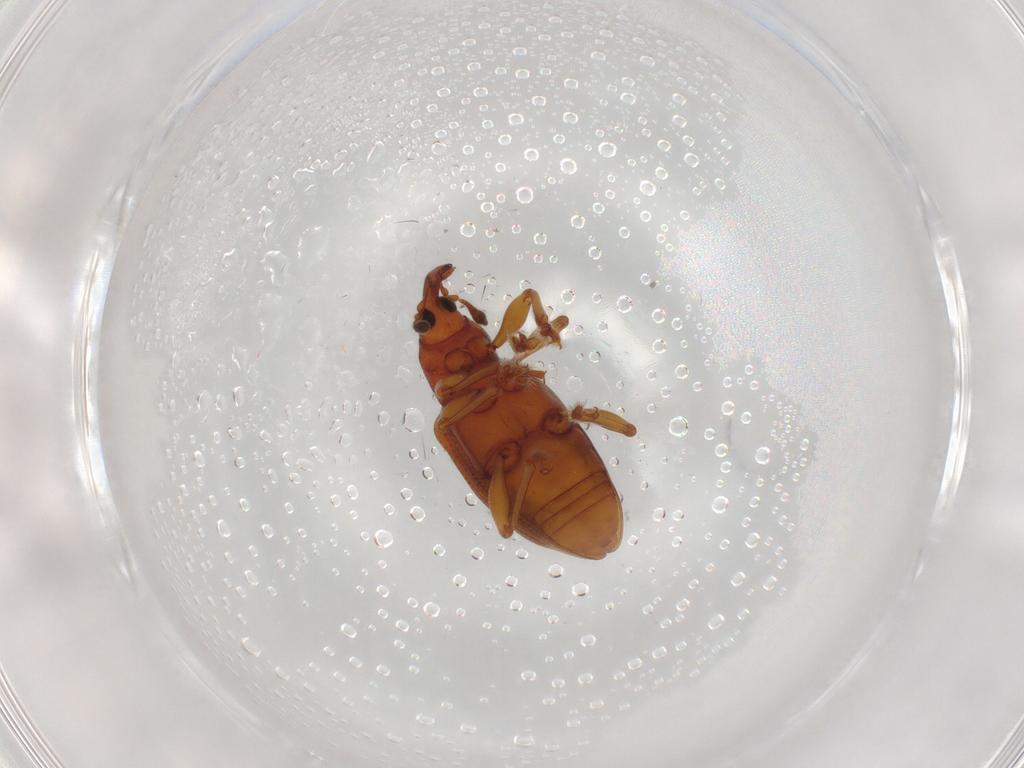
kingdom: Animalia
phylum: Arthropoda
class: Insecta
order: Coleoptera
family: Curculionidae
